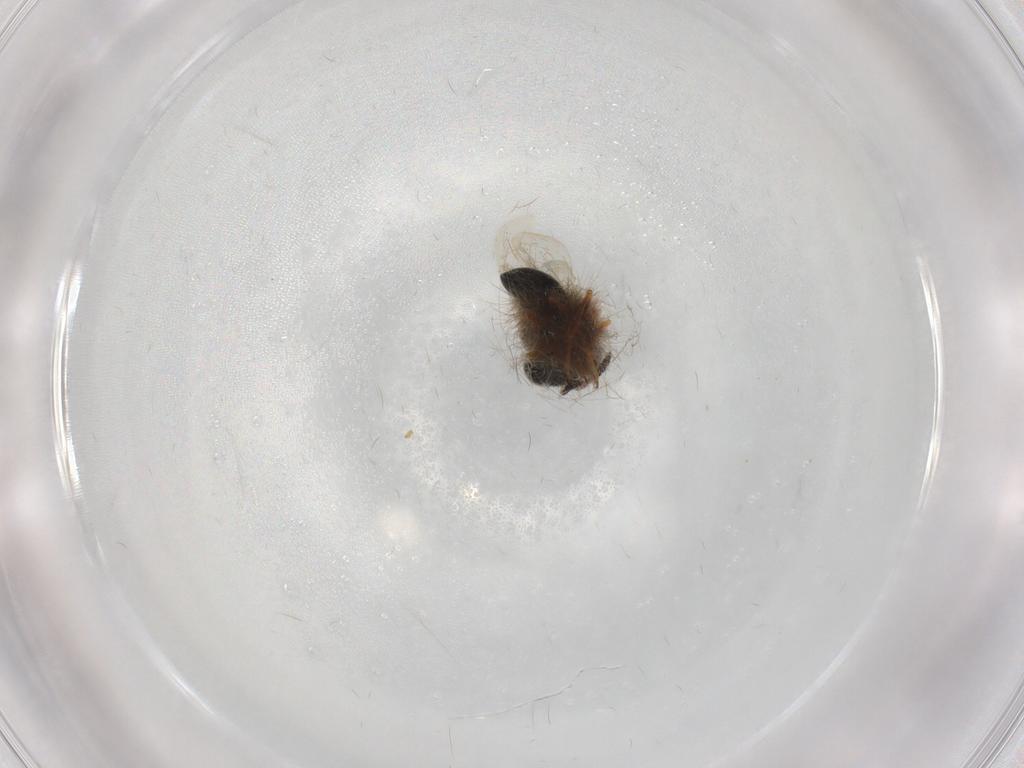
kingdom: Animalia
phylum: Arthropoda
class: Insecta
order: Hymenoptera
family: Scelionidae
